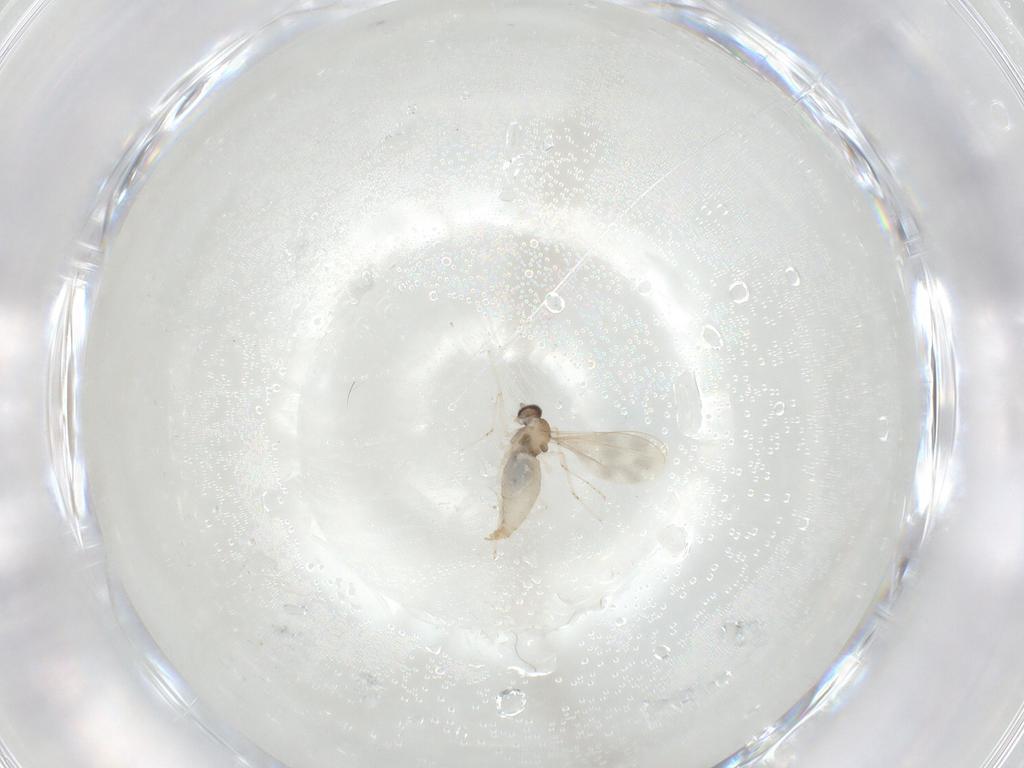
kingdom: Animalia
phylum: Arthropoda
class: Insecta
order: Diptera
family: Cecidomyiidae
